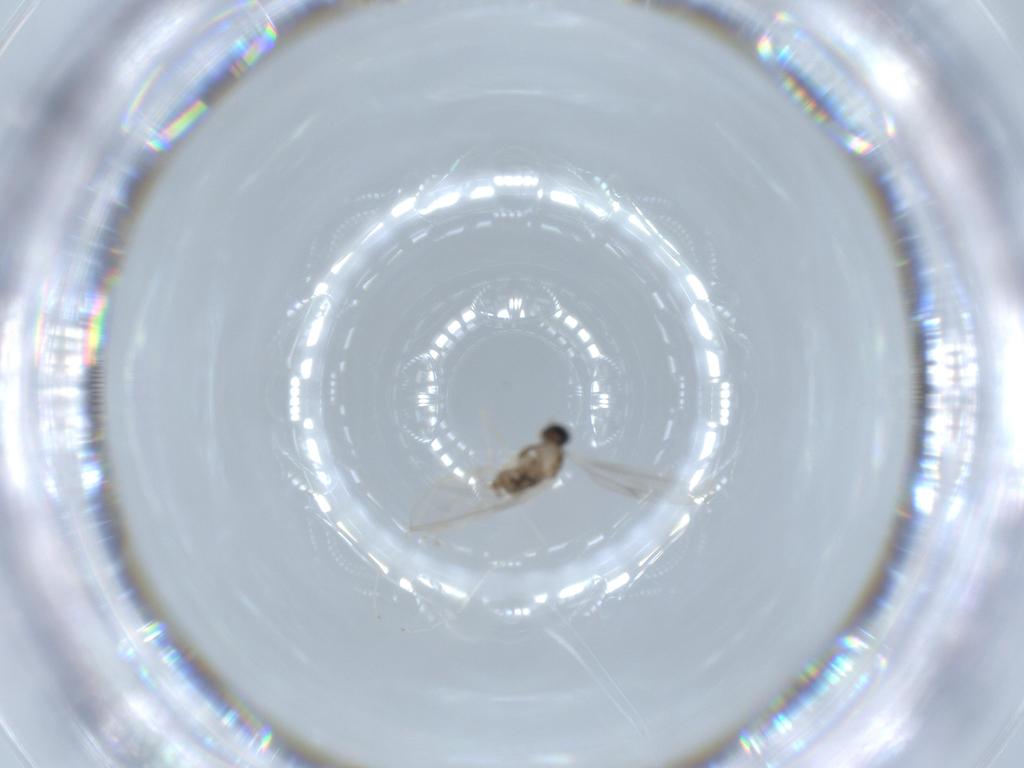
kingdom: Animalia
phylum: Arthropoda
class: Insecta
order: Diptera
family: Cecidomyiidae
